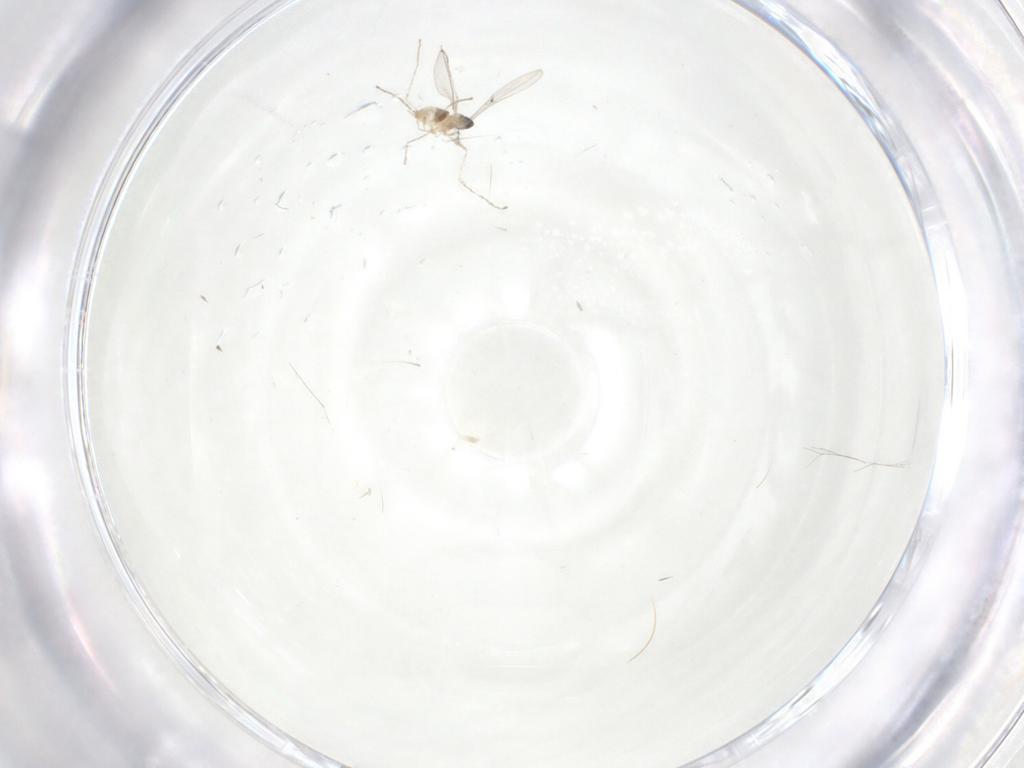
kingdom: Animalia
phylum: Arthropoda
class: Insecta
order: Diptera
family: Cecidomyiidae
